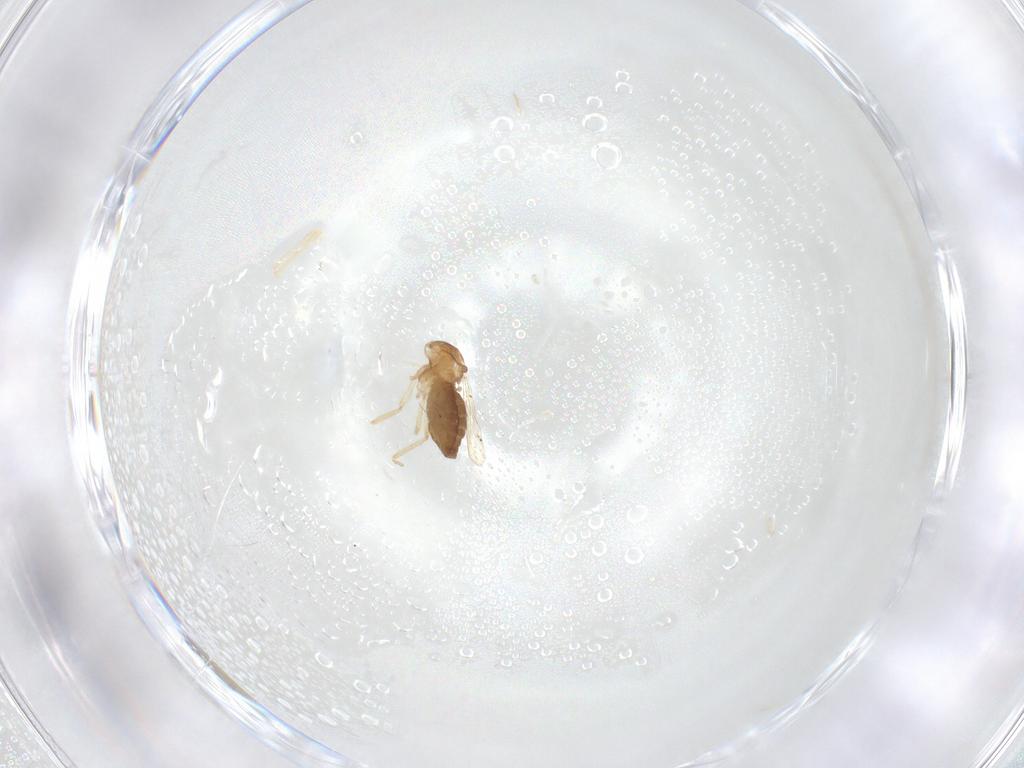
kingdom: Animalia
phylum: Arthropoda
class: Insecta
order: Diptera
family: Ceratopogonidae
